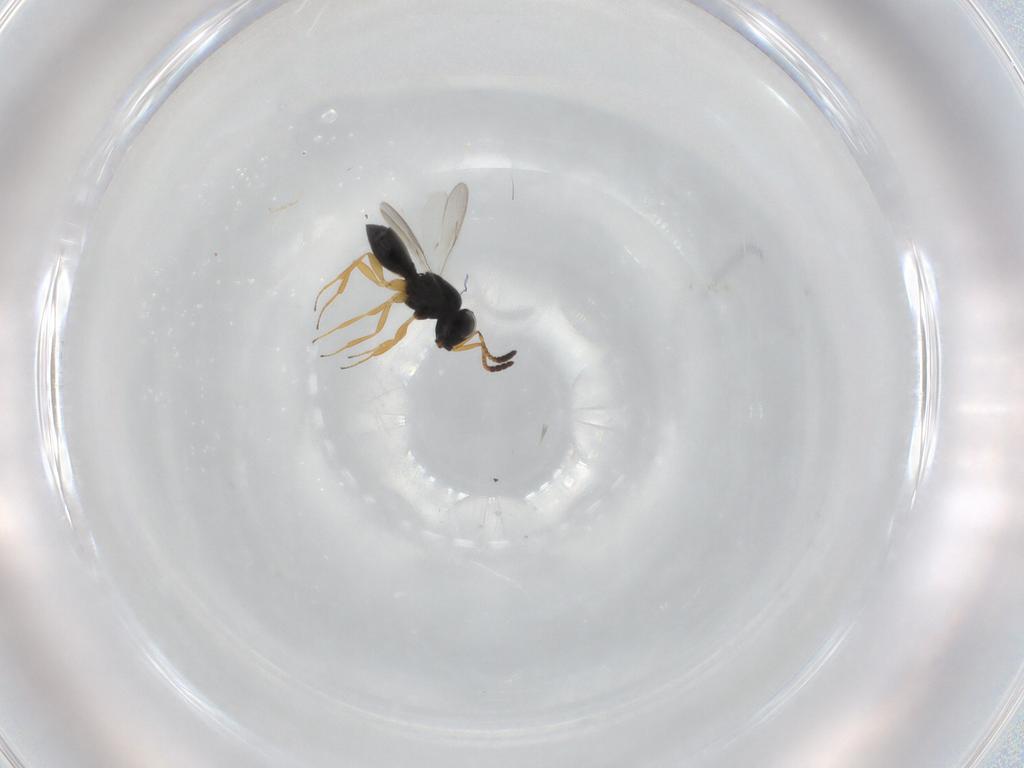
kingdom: Animalia
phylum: Arthropoda
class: Insecta
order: Hymenoptera
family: Scelionidae
